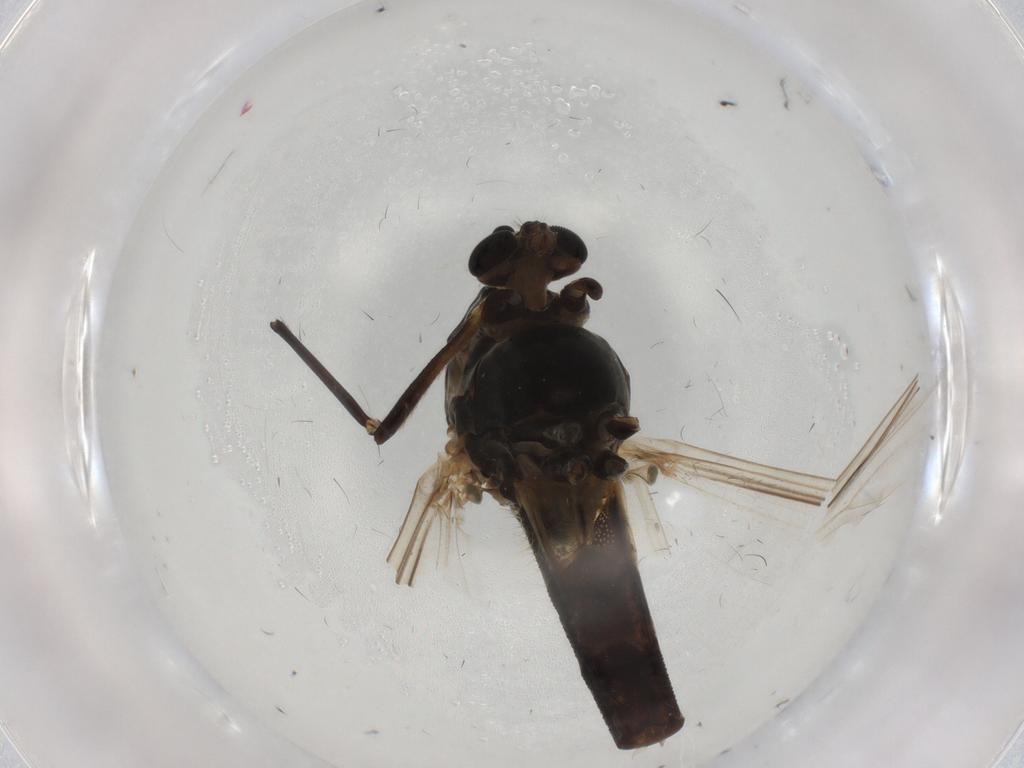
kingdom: Animalia
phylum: Arthropoda
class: Insecta
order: Diptera
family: Chironomidae
